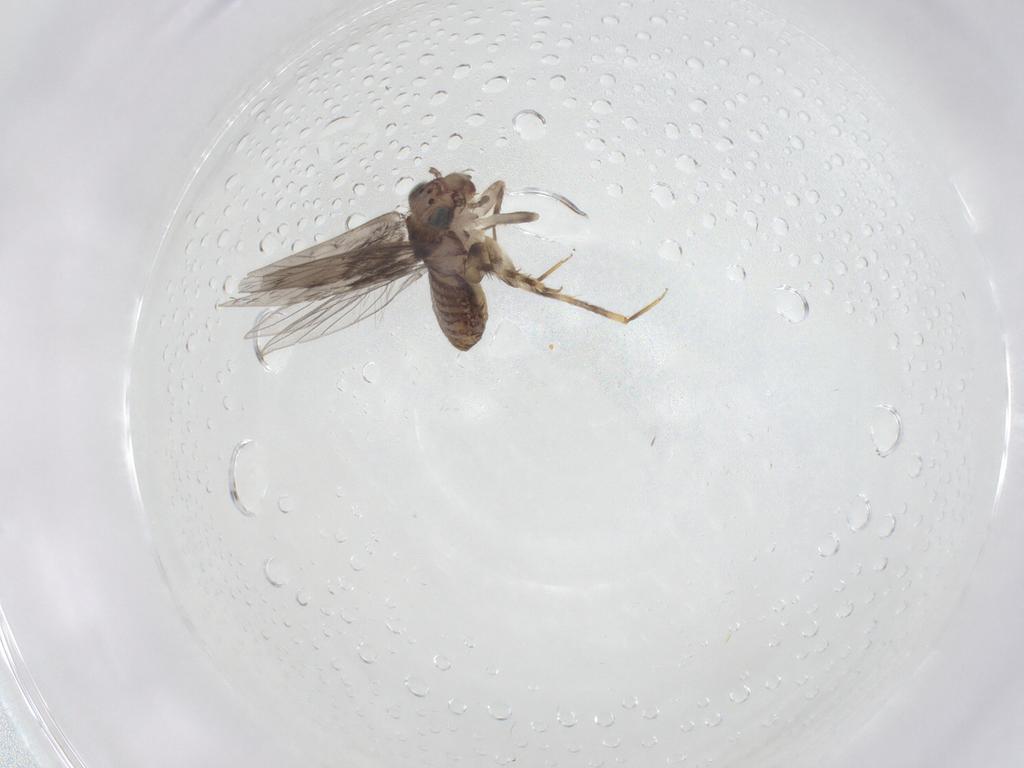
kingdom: Animalia
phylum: Arthropoda
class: Insecta
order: Psocodea
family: Lepidopsocidae
